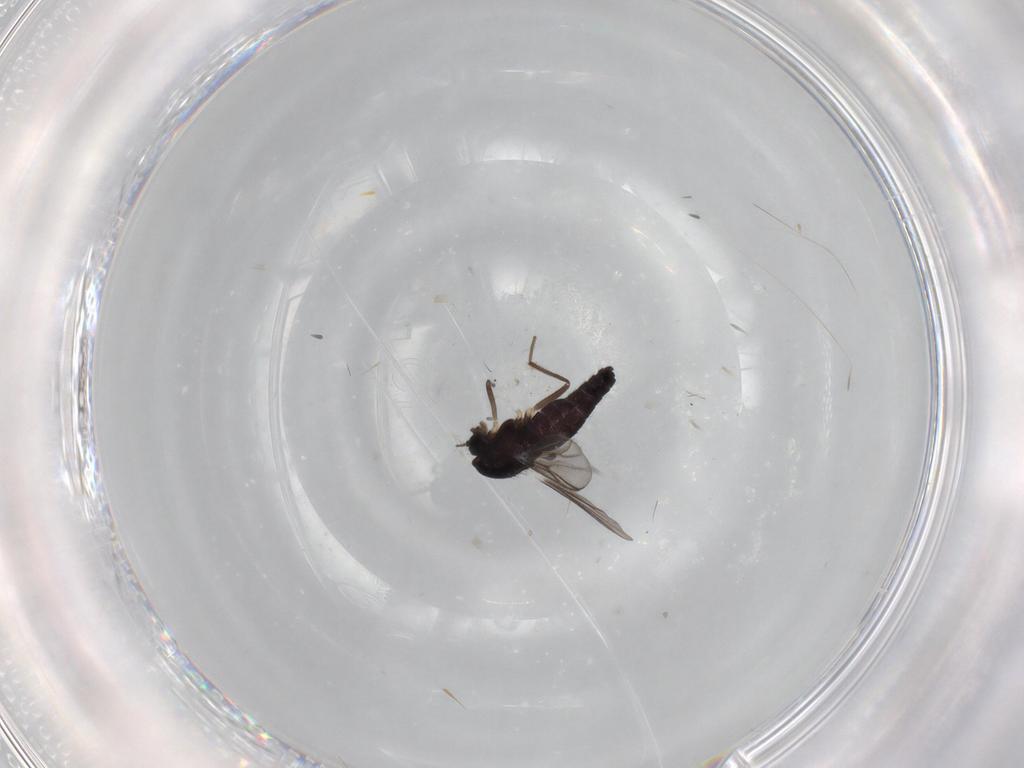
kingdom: Animalia
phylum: Arthropoda
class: Insecta
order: Diptera
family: Chironomidae
